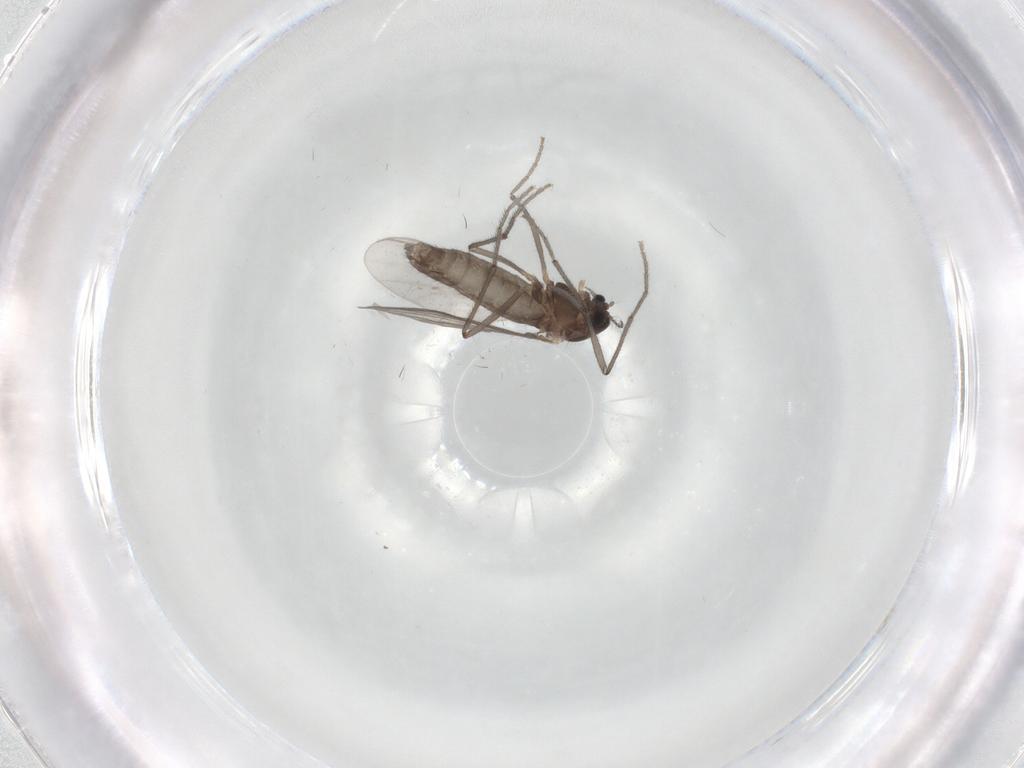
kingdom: Animalia
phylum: Arthropoda
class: Insecta
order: Diptera
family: Chironomidae
